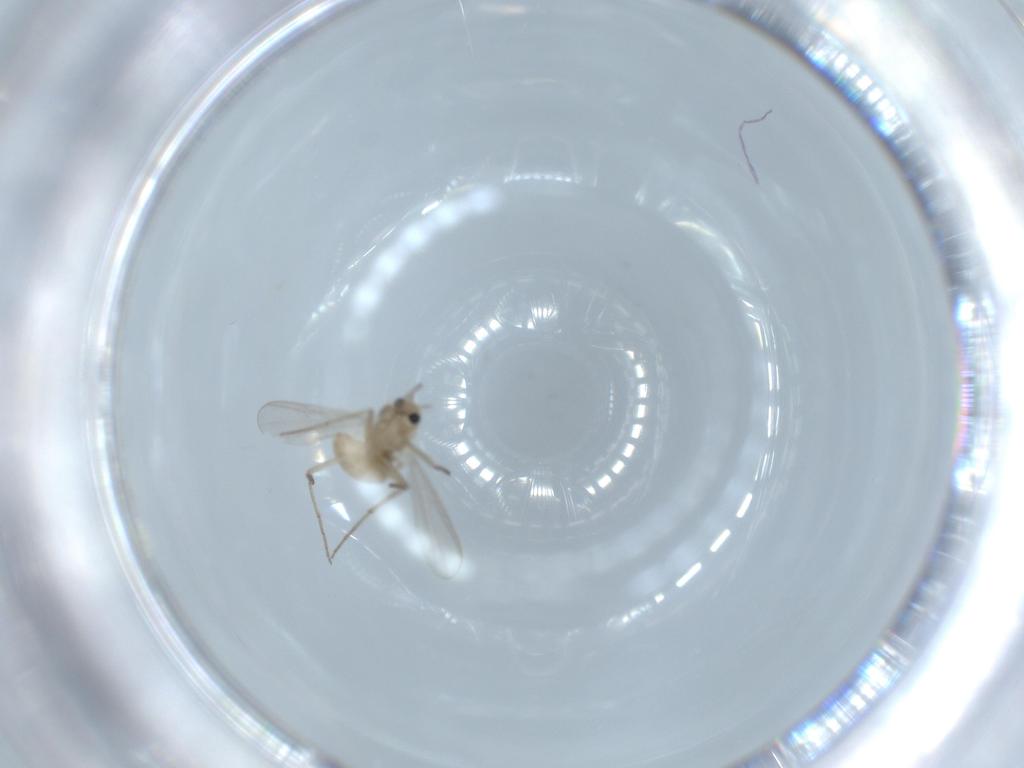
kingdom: Animalia
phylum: Arthropoda
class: Insecta
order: Diptera
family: Chironomidae
